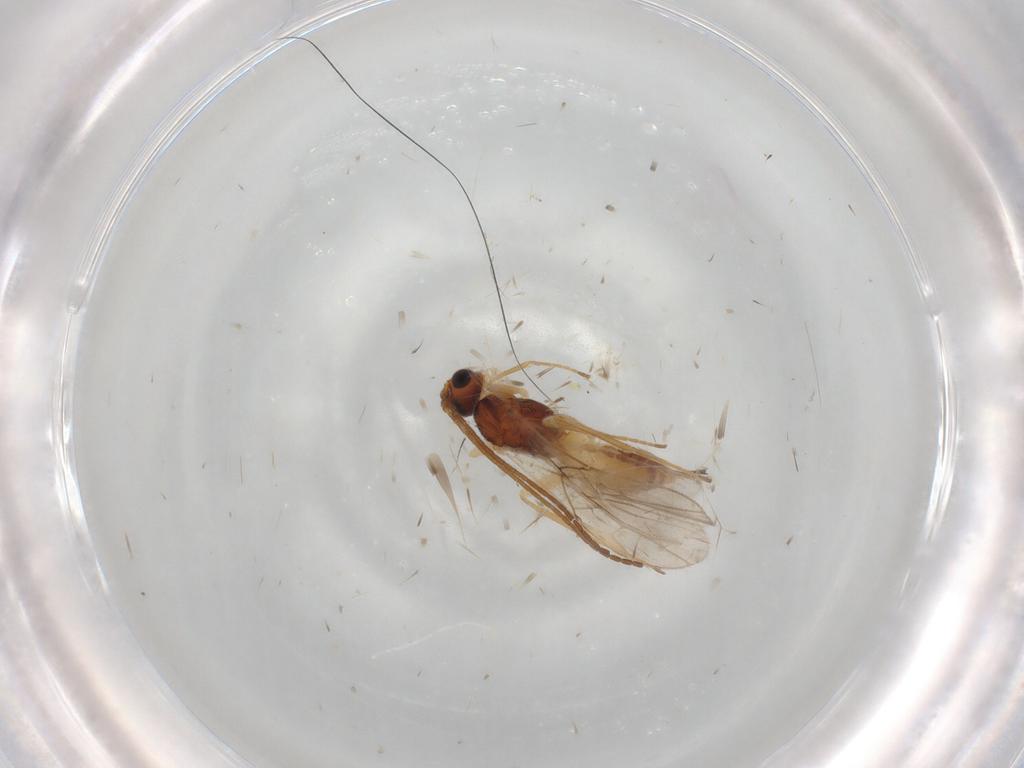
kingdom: Animalia
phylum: Arthropoda
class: Insecta
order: Hymenoptera
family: Braconidae
